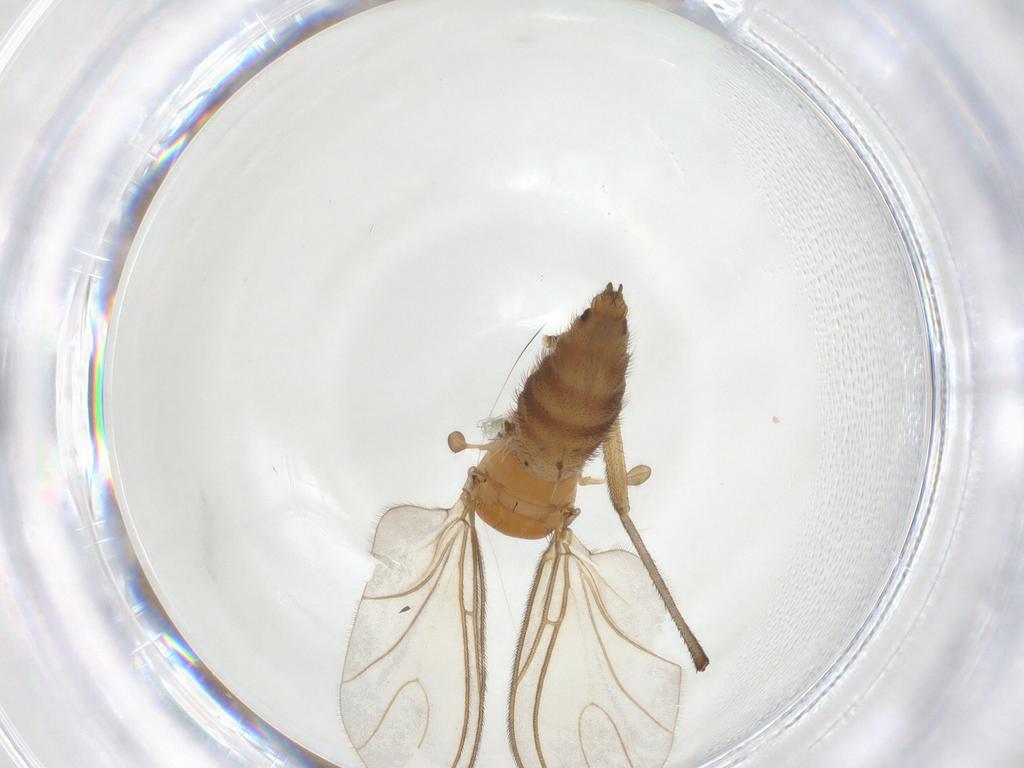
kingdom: Animalia
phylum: Arthropoda
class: Insecta
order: Diptera
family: Sciaridae
